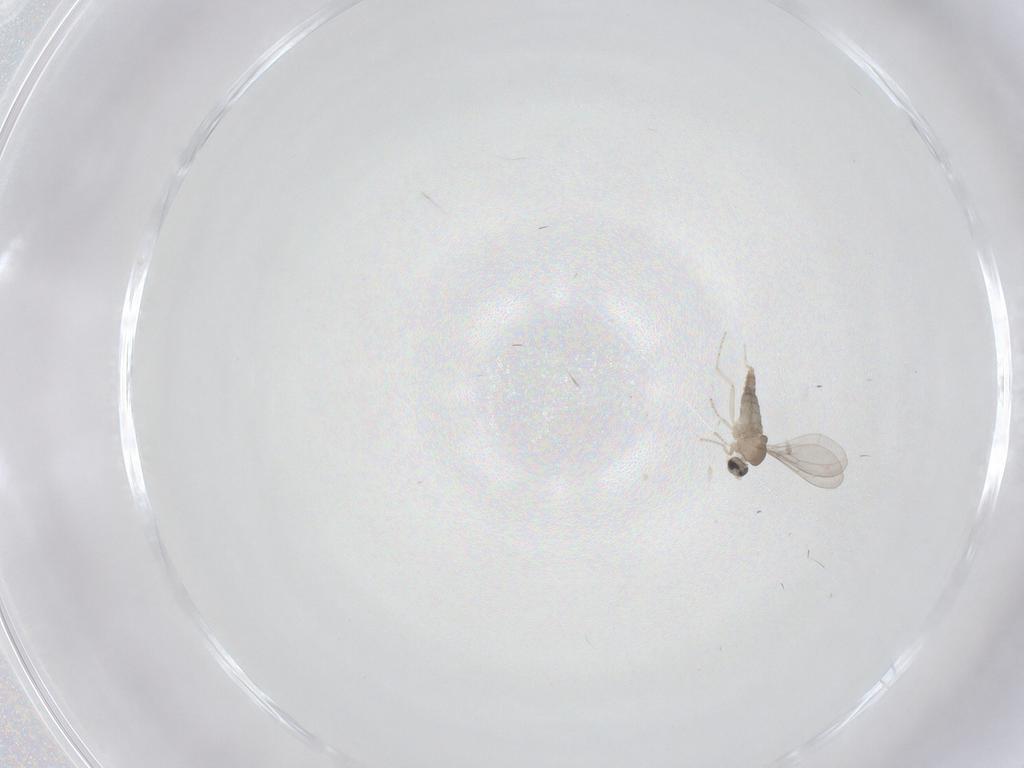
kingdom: Animalia
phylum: Arthropoda
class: Insecta
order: Diptera
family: Cecidomyiidae
